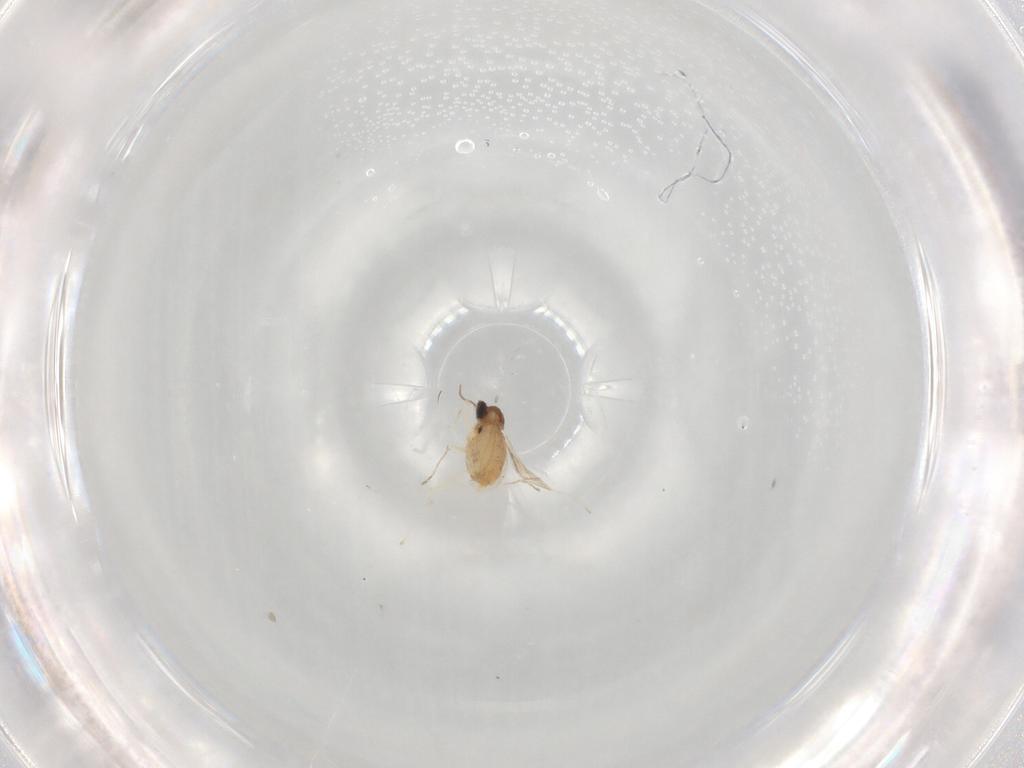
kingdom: Animalia
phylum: Arthropoda
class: Insecta
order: Diptera
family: Cecidomyiidae
